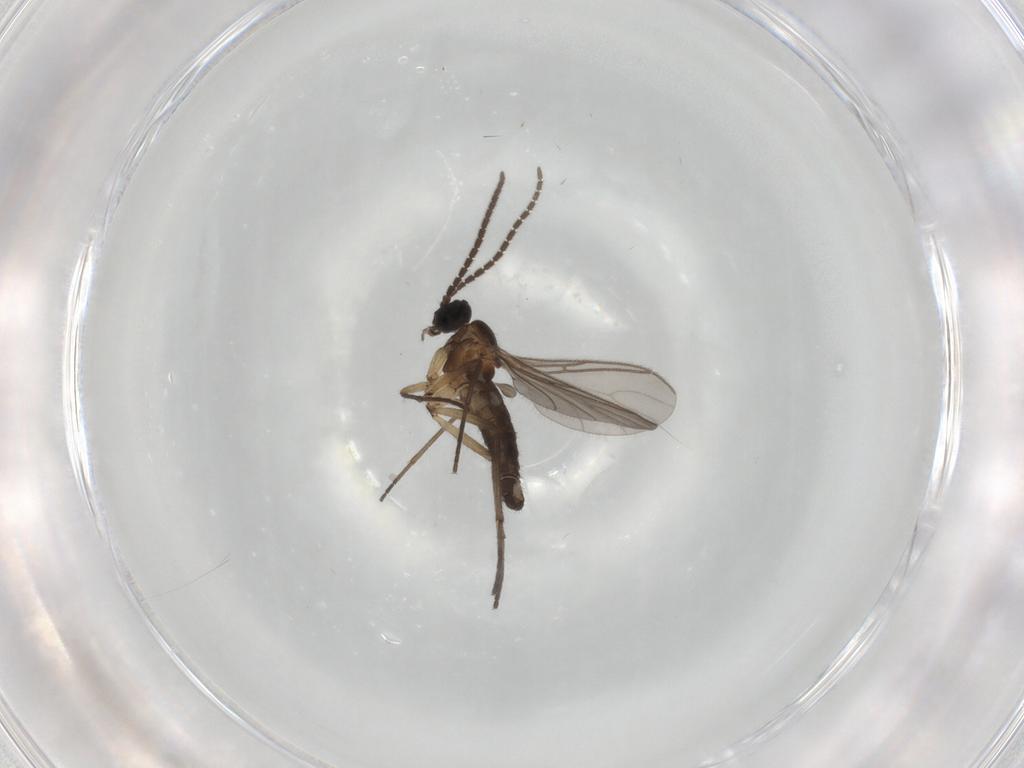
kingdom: Animalia
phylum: Arthropoda
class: Insecta
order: Diptera
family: Sciaridae
